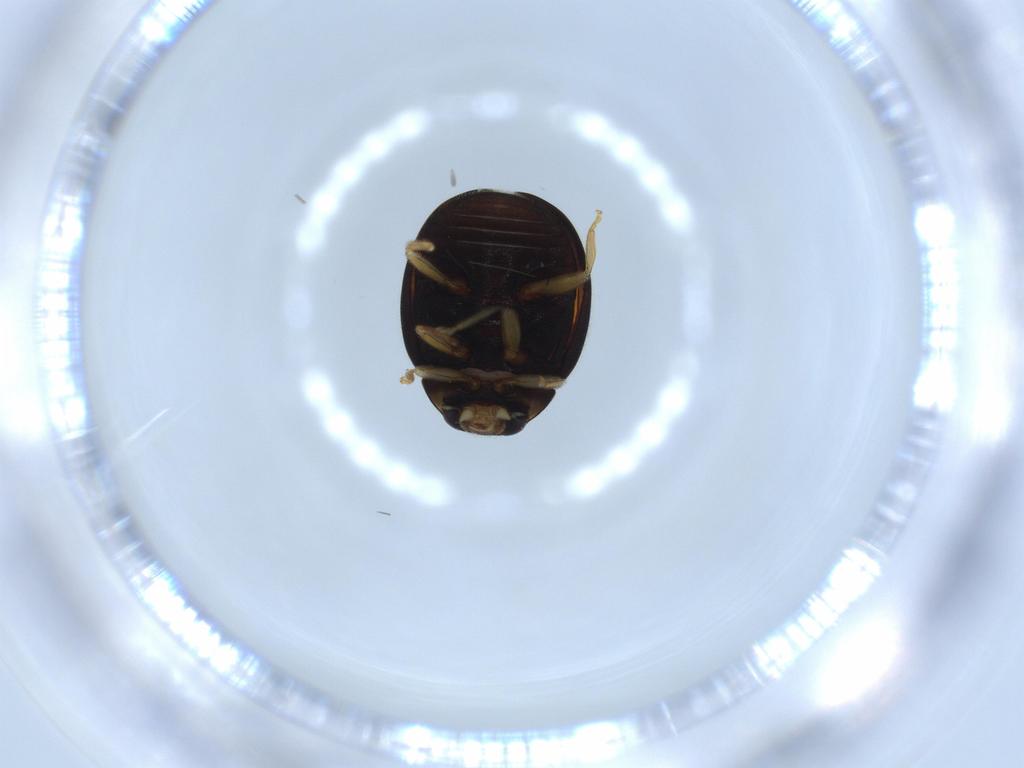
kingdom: Animalia
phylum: Arthropoda
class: Insecta
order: Coleoptera
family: Coccinellidae
